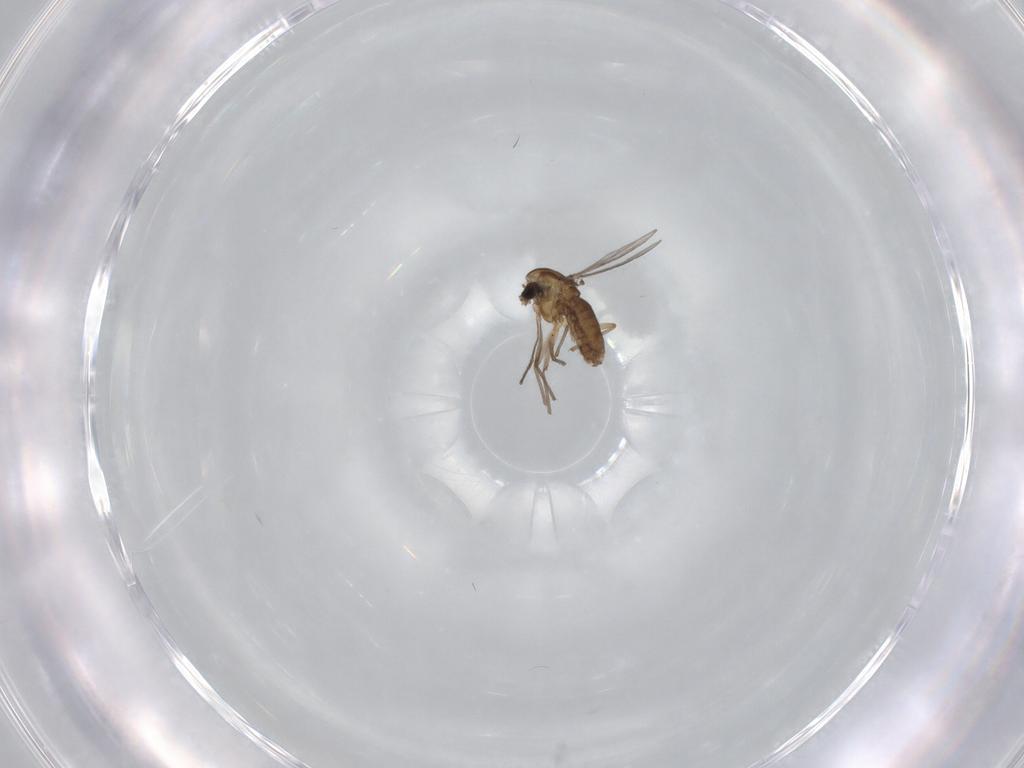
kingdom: Animalia
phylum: Arthropoda
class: Insecta
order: Diptera
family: Chironomidae
